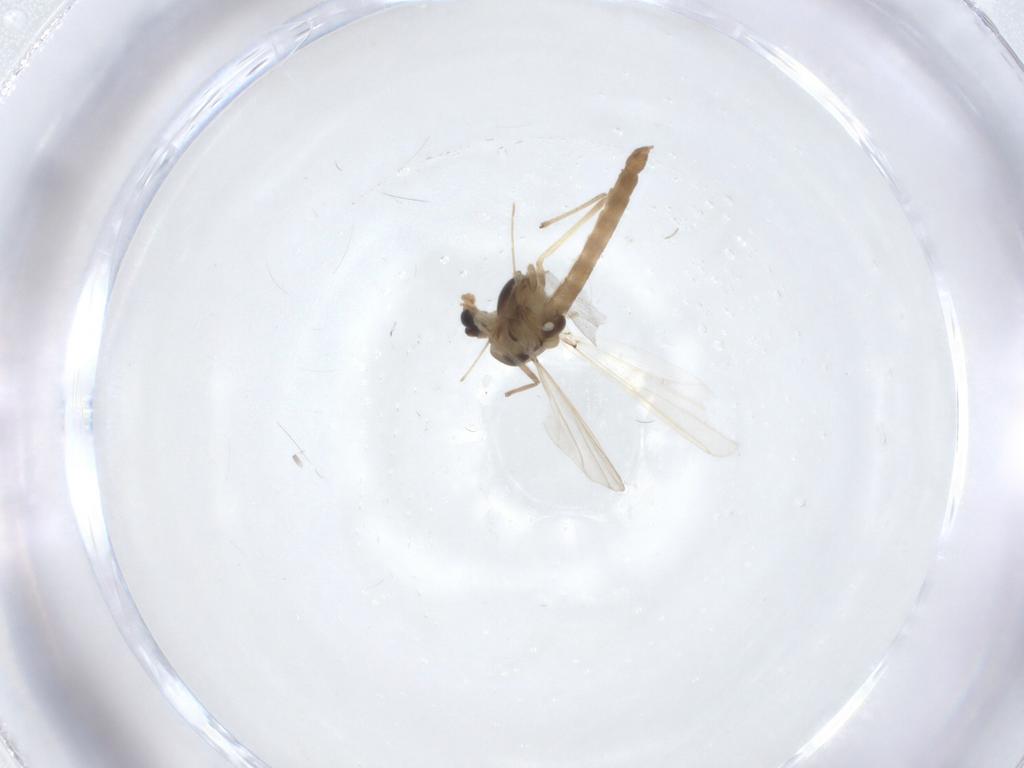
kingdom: Animalia
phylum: Arthropoda
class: Insecta
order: Diptera
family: Chironomidae
